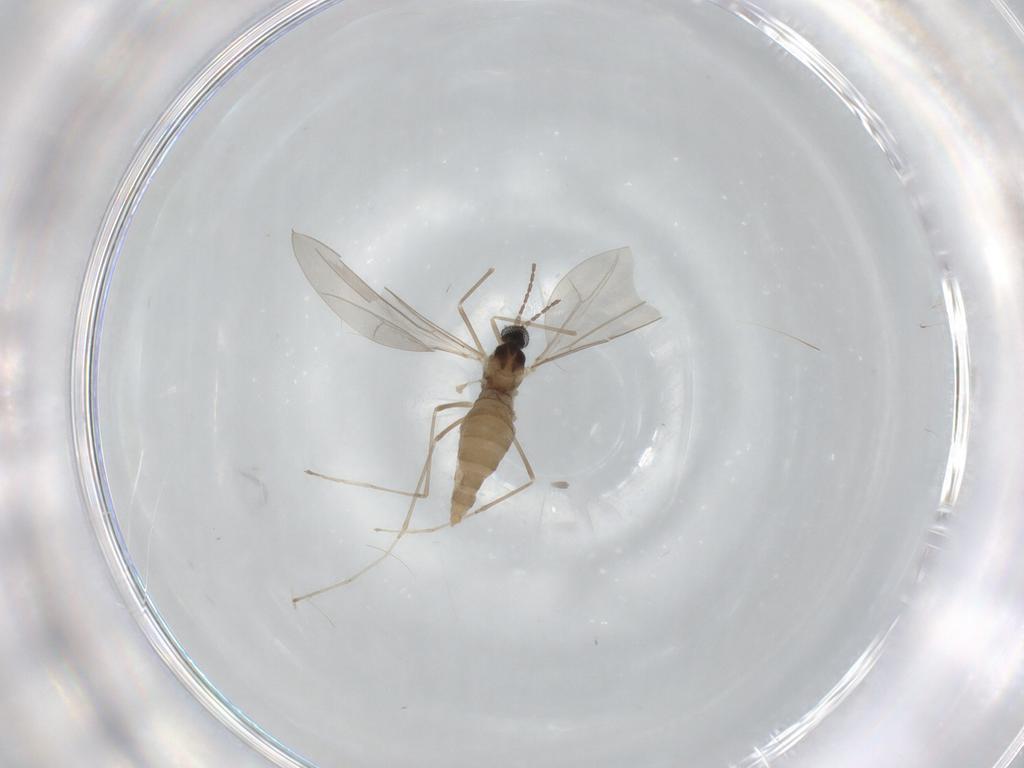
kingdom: Animalia
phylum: Arthropoda
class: Insecta
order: Diptera
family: Cecidomyiidae
